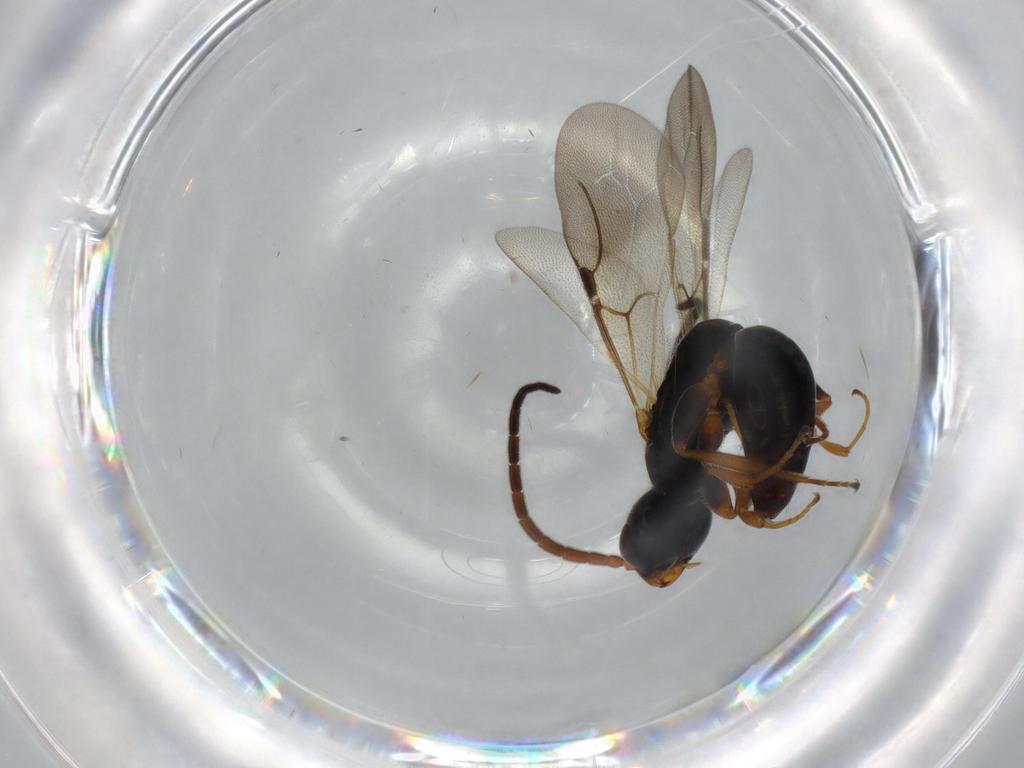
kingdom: Animalia
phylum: Arthropoda
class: Insecta
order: Hymenoptera
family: Bethylidae
